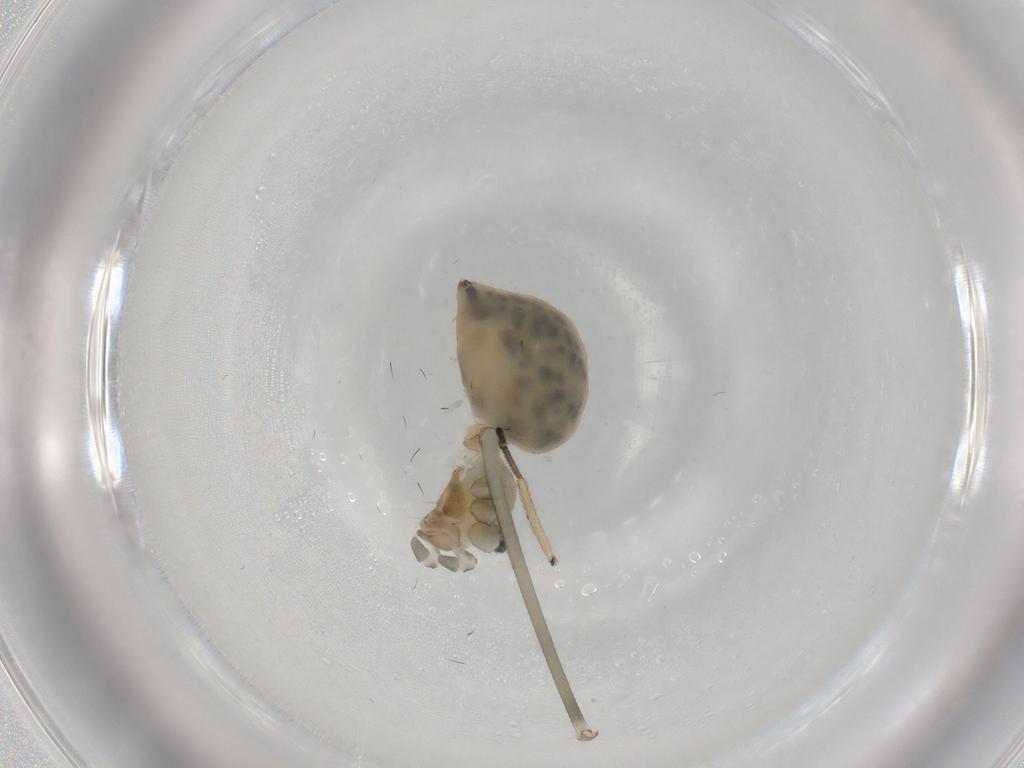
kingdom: Animalia
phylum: Arthropoda
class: Arachnida
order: Araneae
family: Pholcidae
